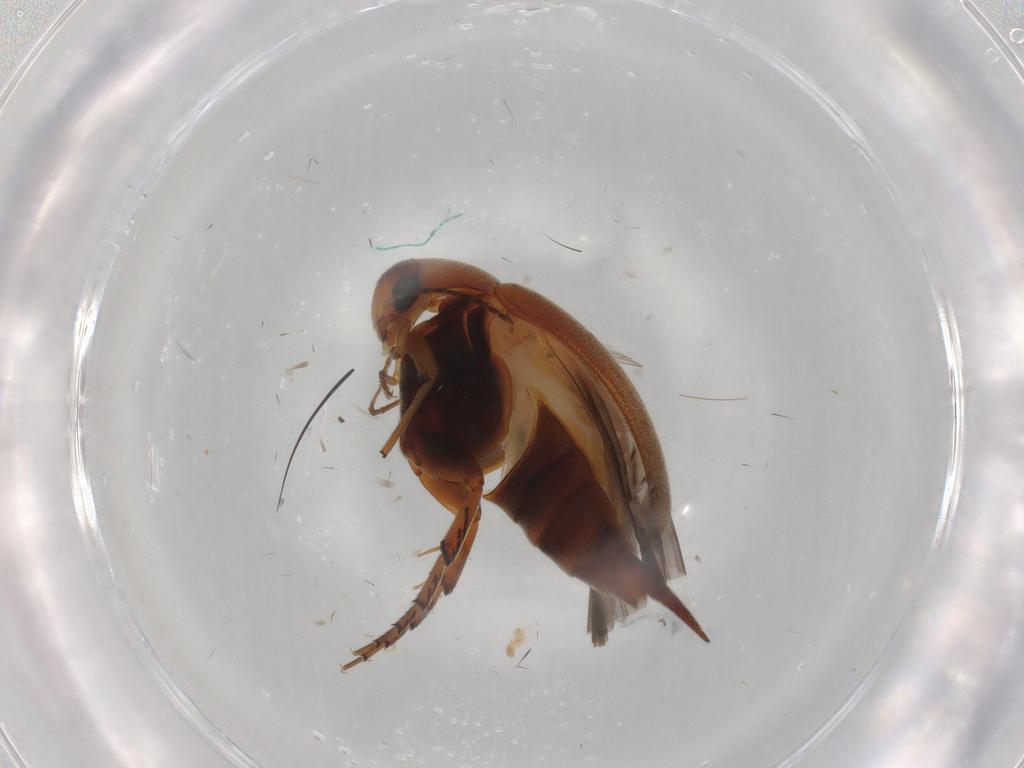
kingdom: Animalia
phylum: Arthropoda
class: Insecta
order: Coleoptera
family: Mordellidae
